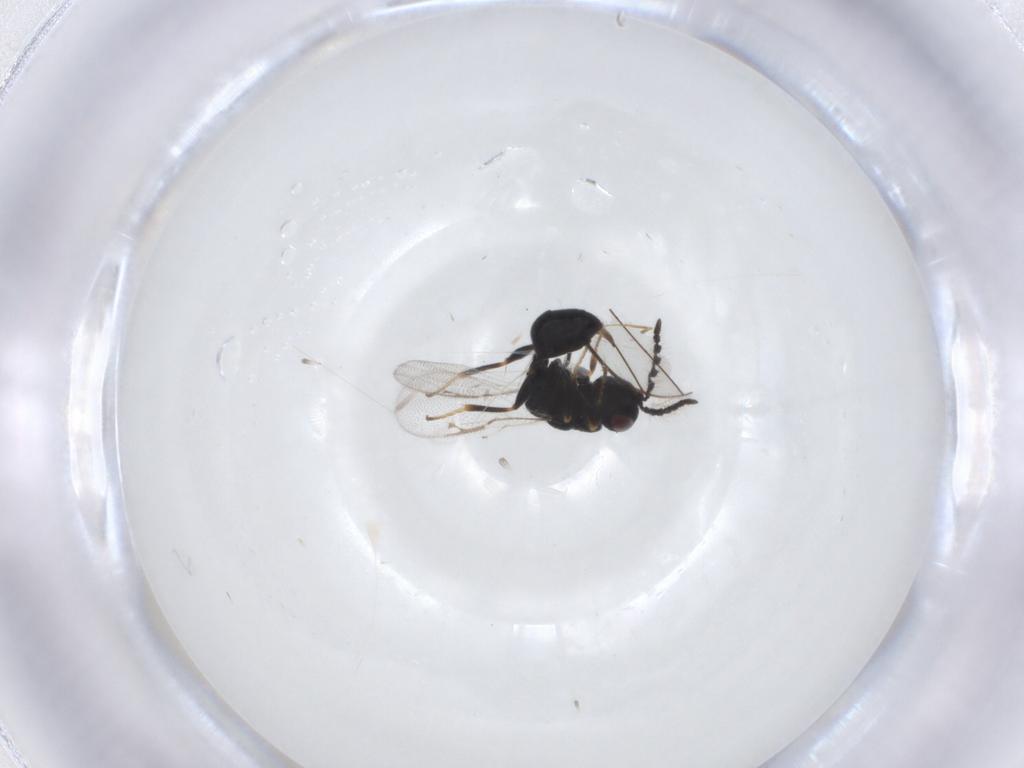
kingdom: Animalia
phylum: Arthropoda
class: Insecta
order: Hymenoptera
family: Eurytomidae
